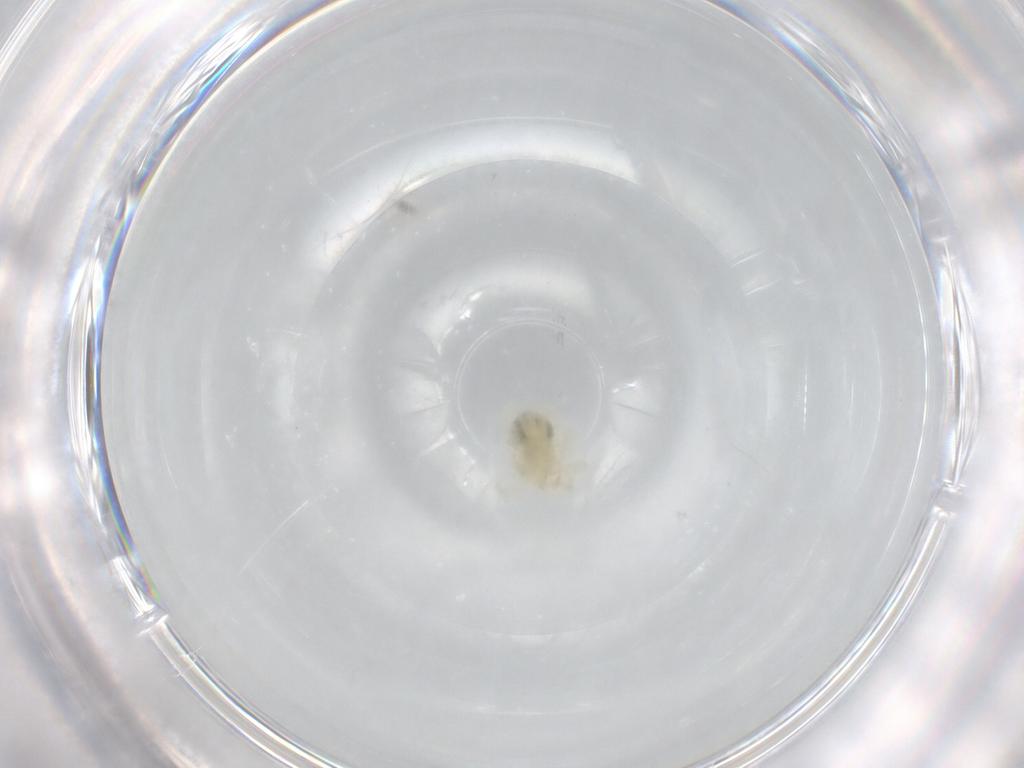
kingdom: Animalia
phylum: Arthropoda
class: Arachnida
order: Trombidiformes
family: Anystidae
